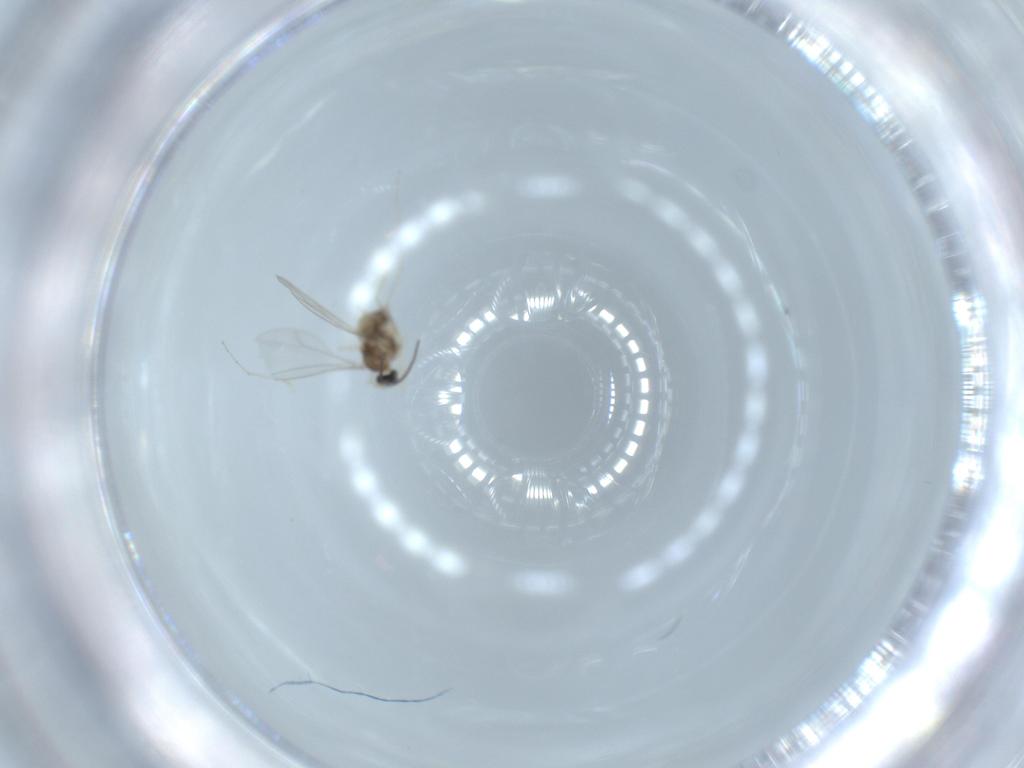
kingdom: Animalia
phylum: Arthropoda
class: Insecta
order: Diptera
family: Cecidomyiidae
